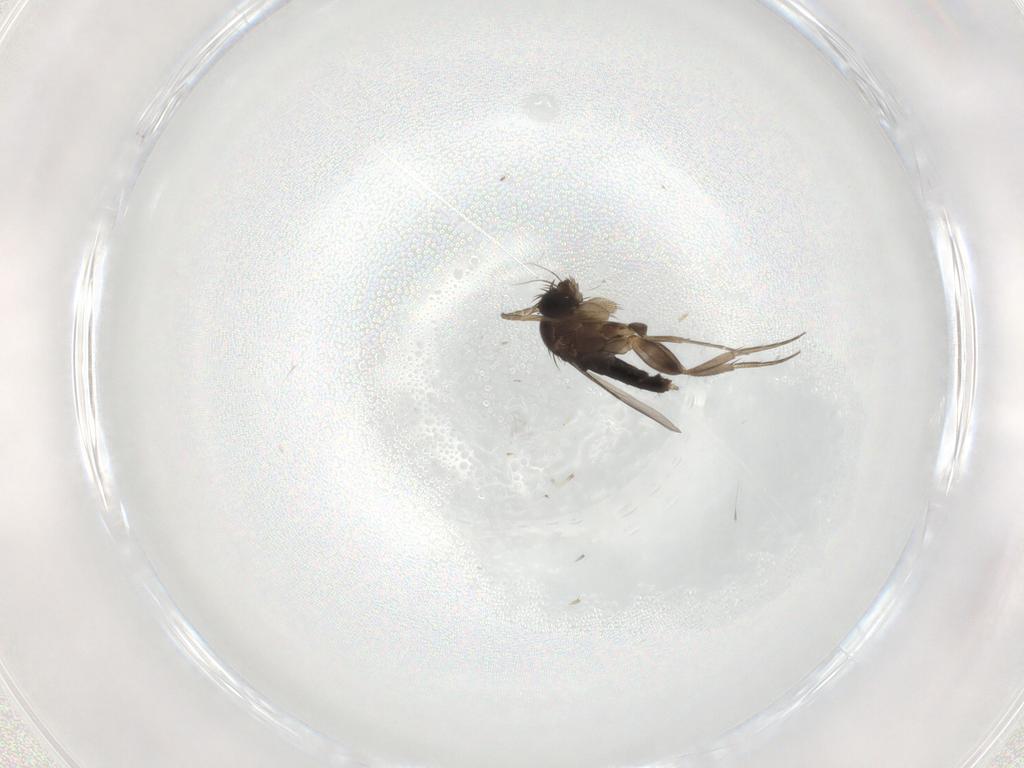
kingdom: Animalia
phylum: Arthropoda
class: Insecta
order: Diptera
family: Phoridae
